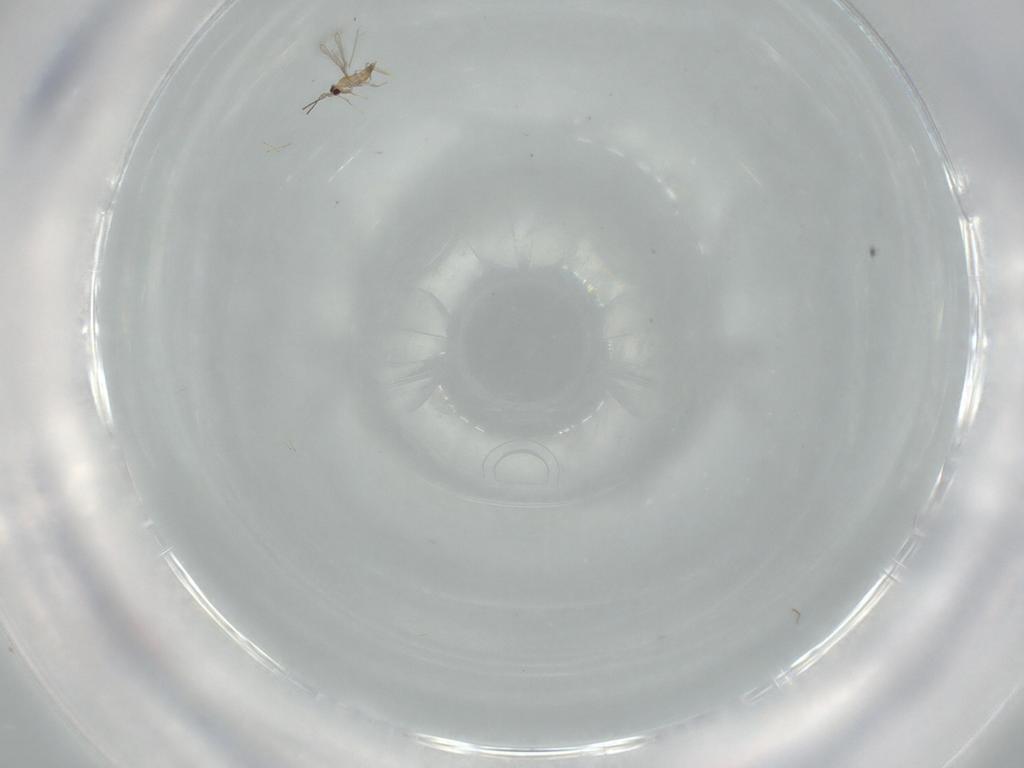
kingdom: Animalia
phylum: Arthropoda
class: Insecta
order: Hymenoptera
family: Mymaridae
